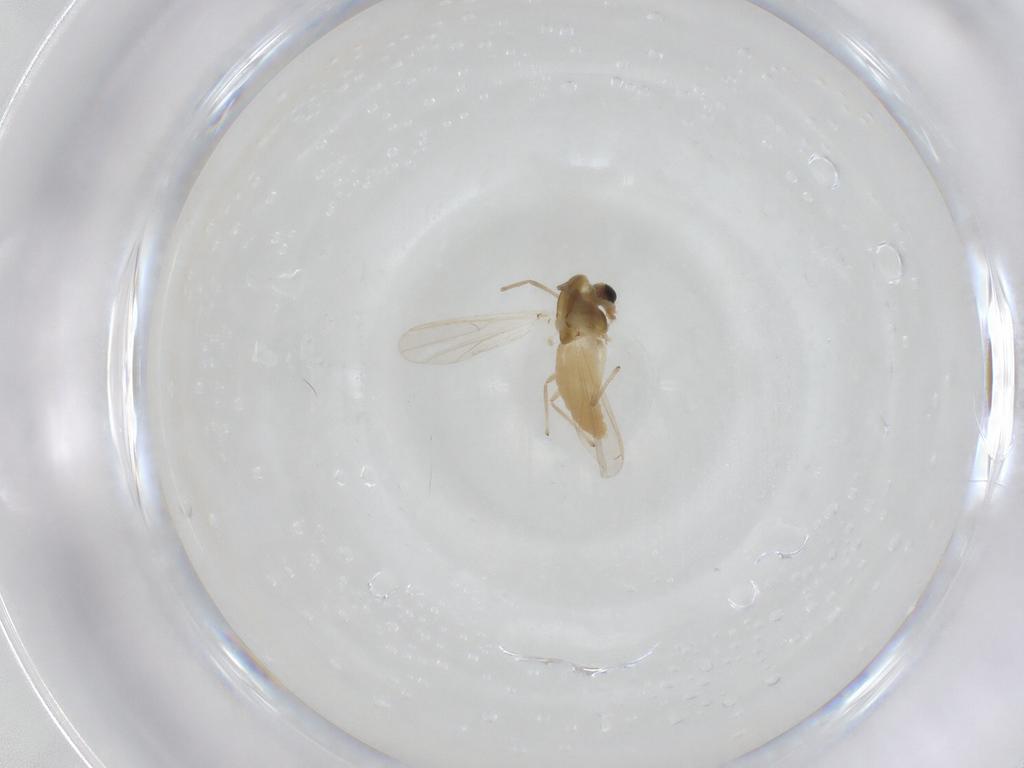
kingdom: Animalia
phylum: Arthropoda
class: Insecta
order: Diptera
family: Chironomidae
